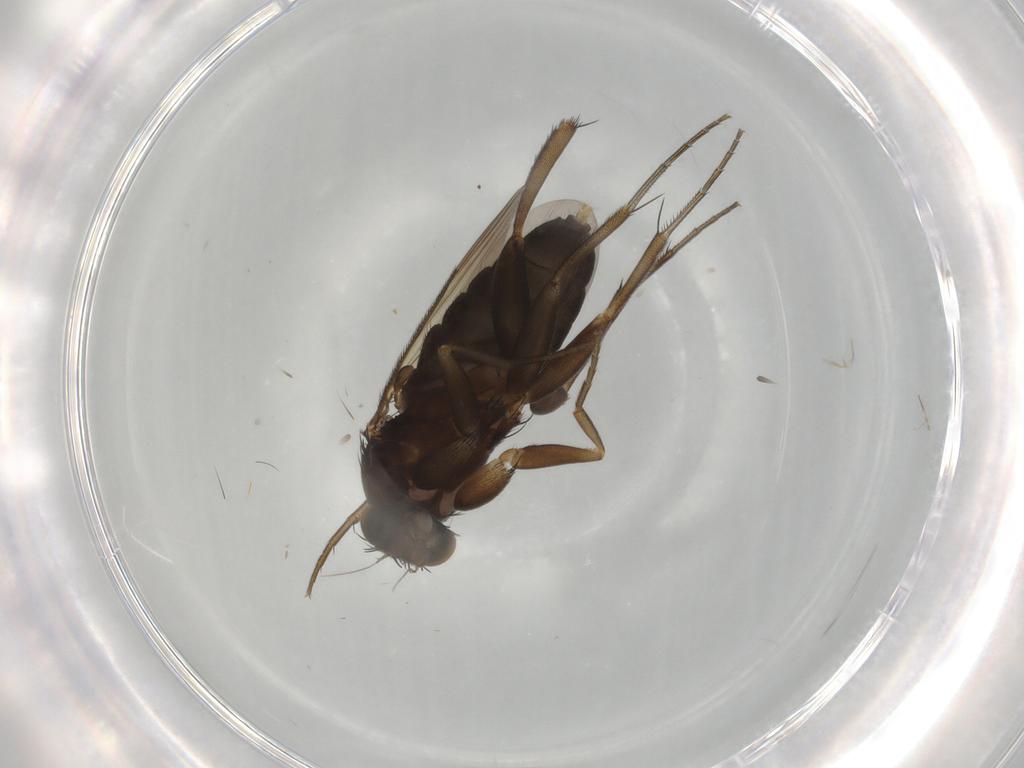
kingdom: Animalia
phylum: Arthropoda
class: Insecta
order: Diptera
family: Phoridae
